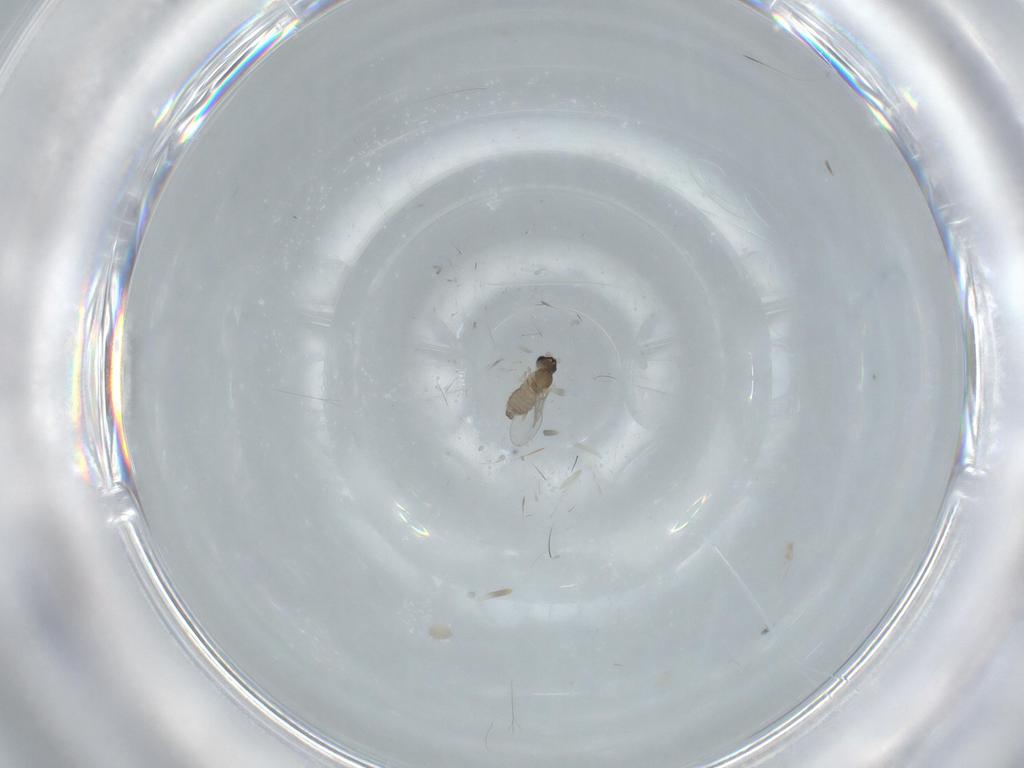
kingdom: Animalia
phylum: Arthropoda
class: Insecta
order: Diptera
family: Cecidomyiidae
